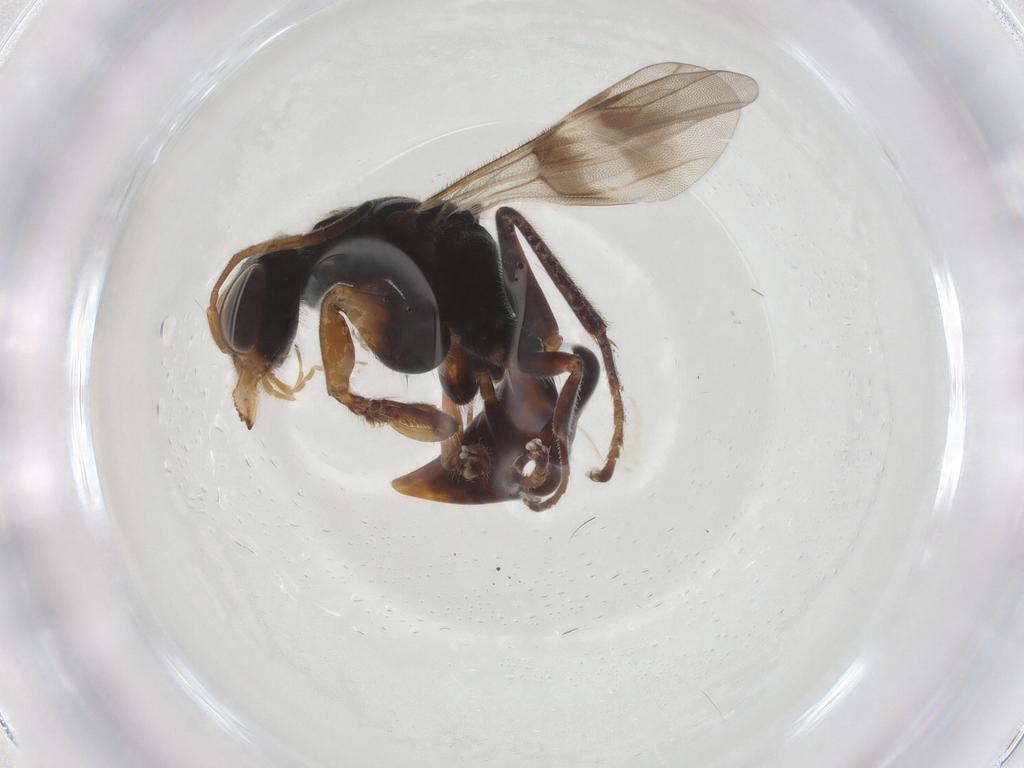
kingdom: Animalia
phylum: Arthropoda
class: Insecta
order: Hymenoptera
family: Dryinidae
